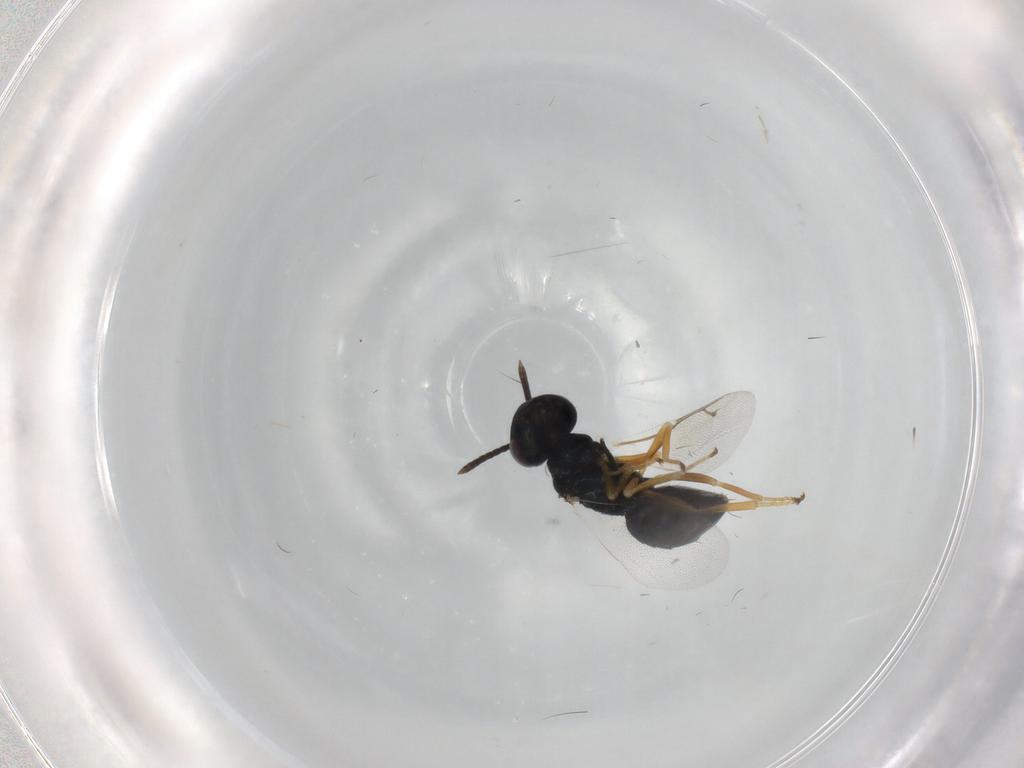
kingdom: Animalia
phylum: Arthropoda
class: Insecta
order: Hymenoptera
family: Pteromalidae
